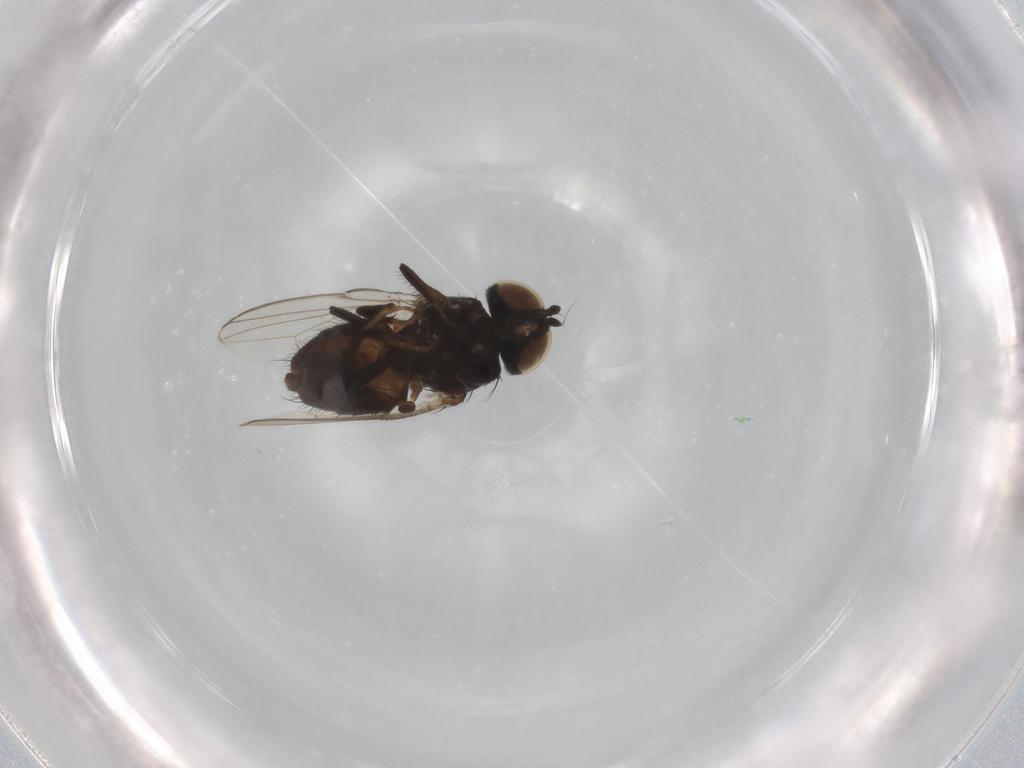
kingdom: Animalia
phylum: Arthropoda
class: Insecta
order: Diptera
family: Milichiidae
